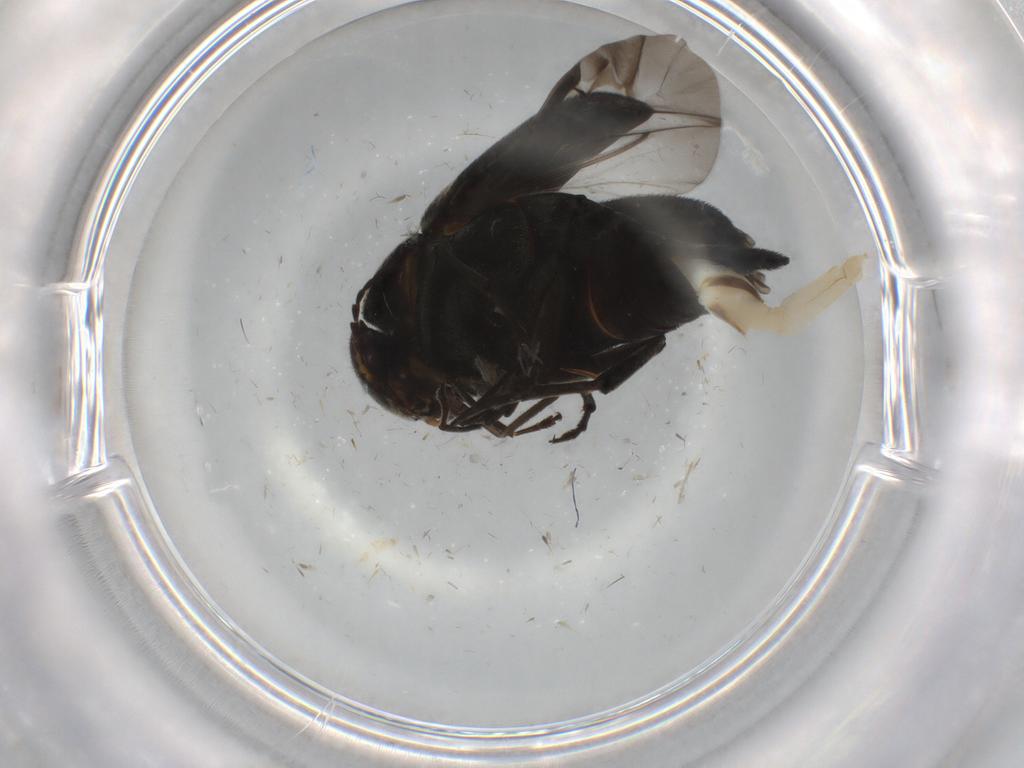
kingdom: Animalia
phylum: Arthropoda
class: Insecta
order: Coleoptera
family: Mordellidae
